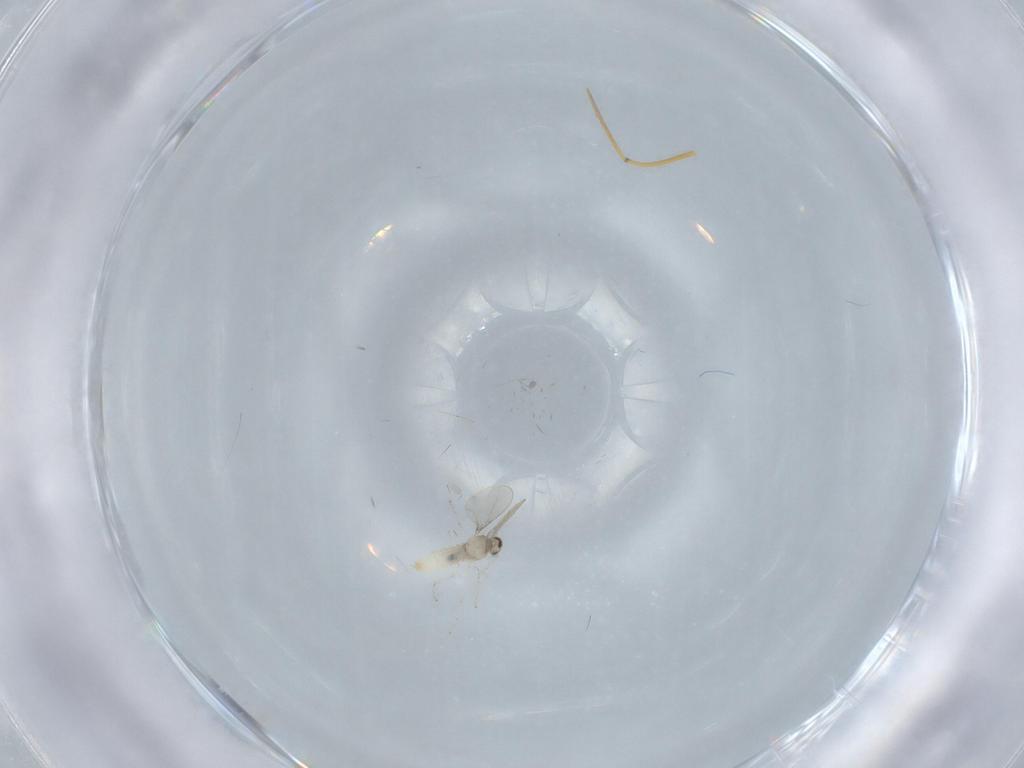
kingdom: Animalia
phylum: Arthropoda
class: Insecta
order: Diptera
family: Cecidomyiidae
